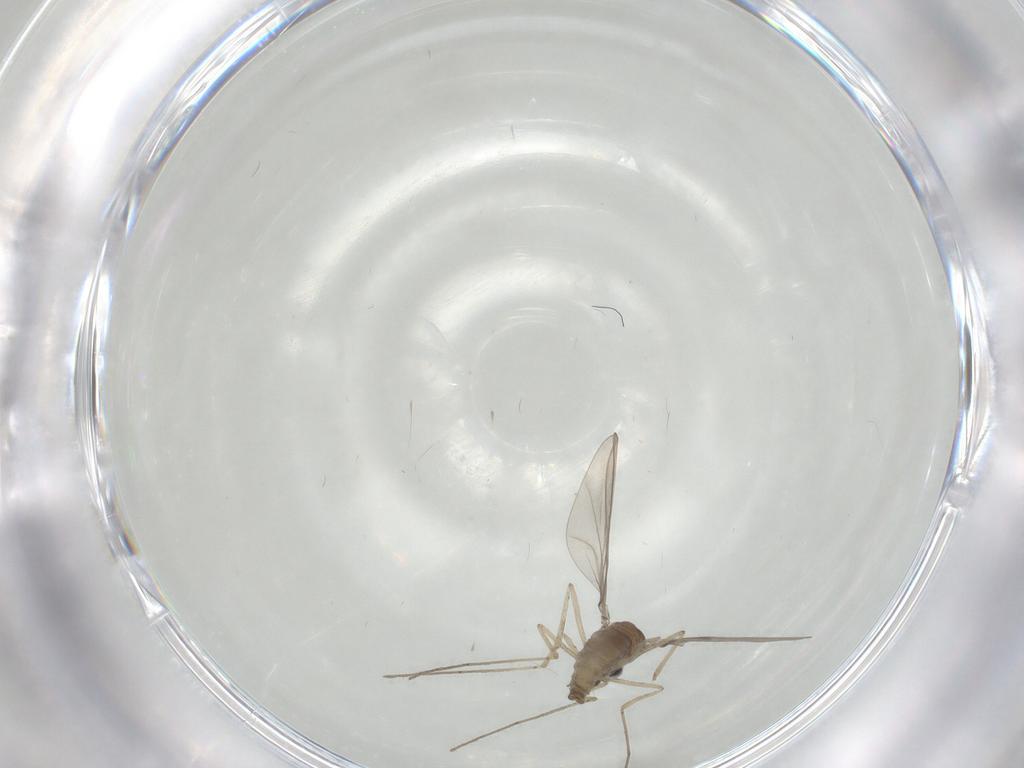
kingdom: Animalia
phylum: Arthropoda
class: Insecta
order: Diptera
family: Cecidomyiidae
